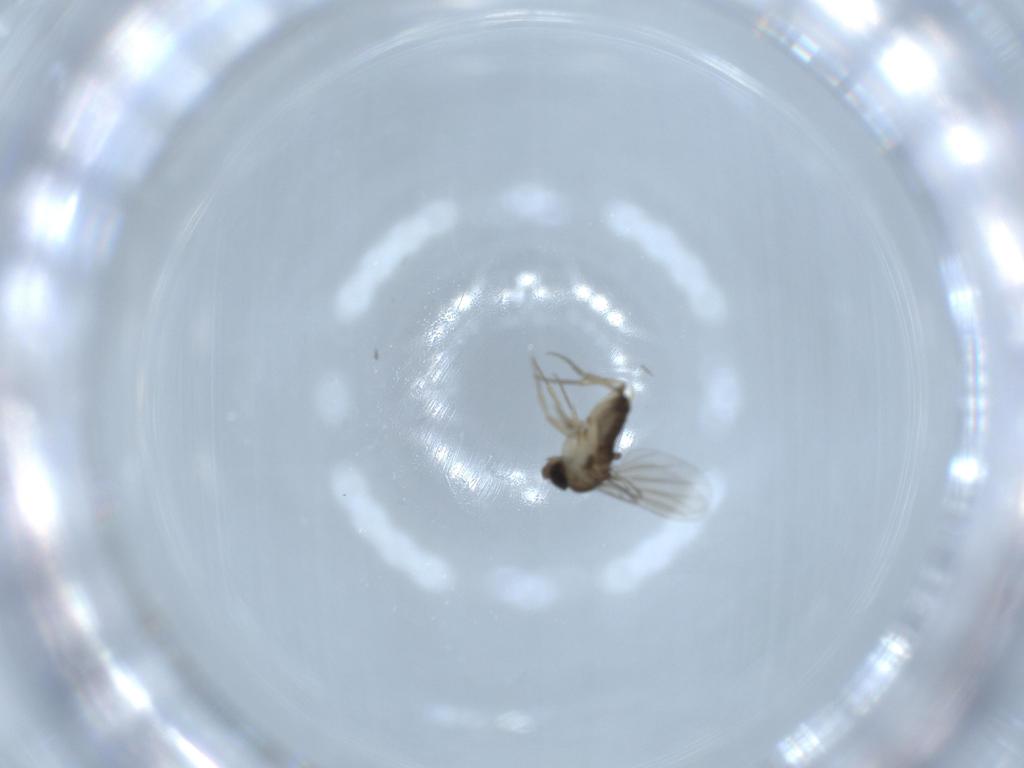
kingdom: Animalia
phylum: Arthropoda
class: Insecta
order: Diptera
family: Phoridae
